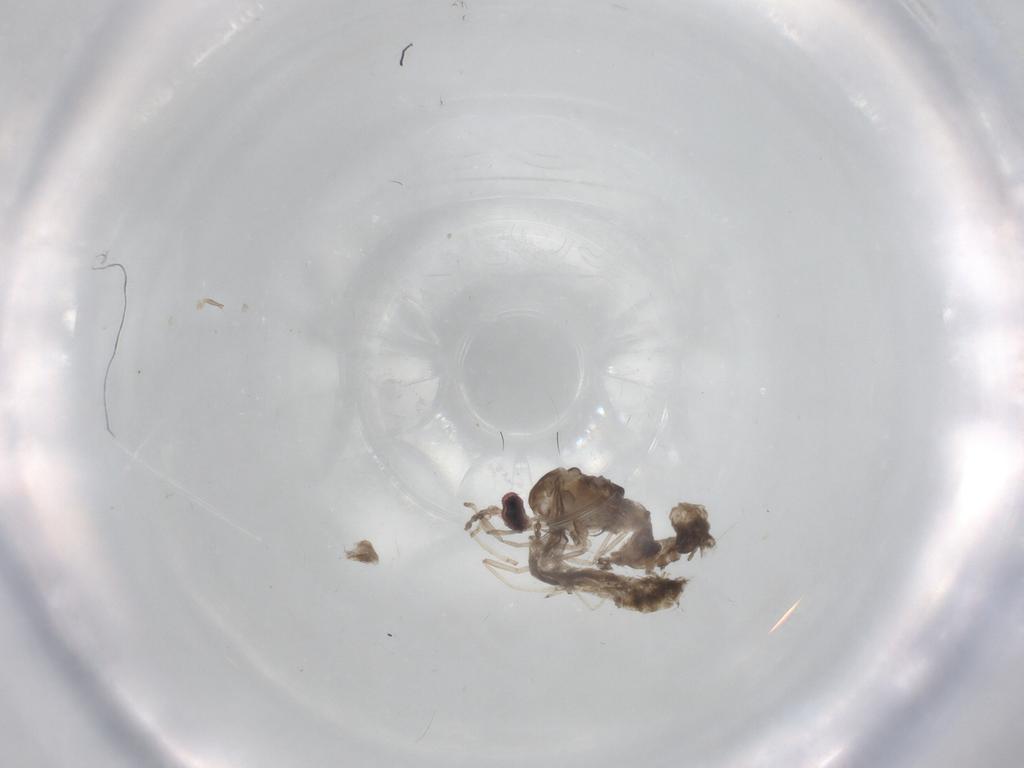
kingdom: Animalia
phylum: Arthropoda
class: Insecta
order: Diptera
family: Cecidomyiidae
